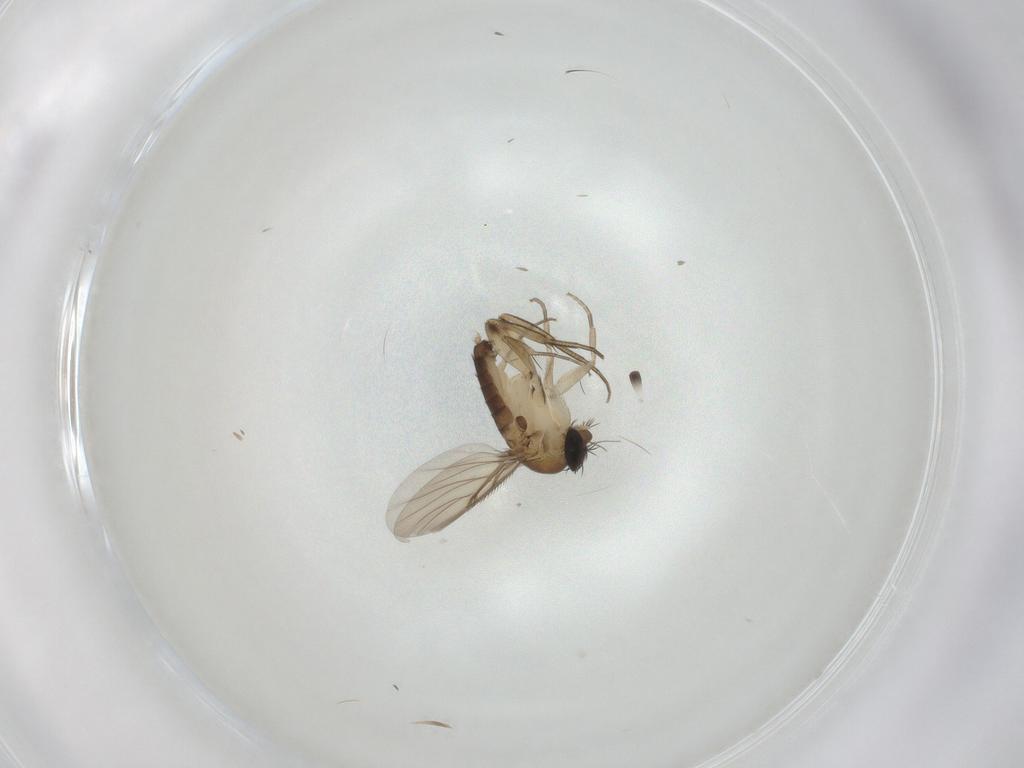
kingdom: Animalia
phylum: Arthropoda
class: Insecta
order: Diptera
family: Phoridae
